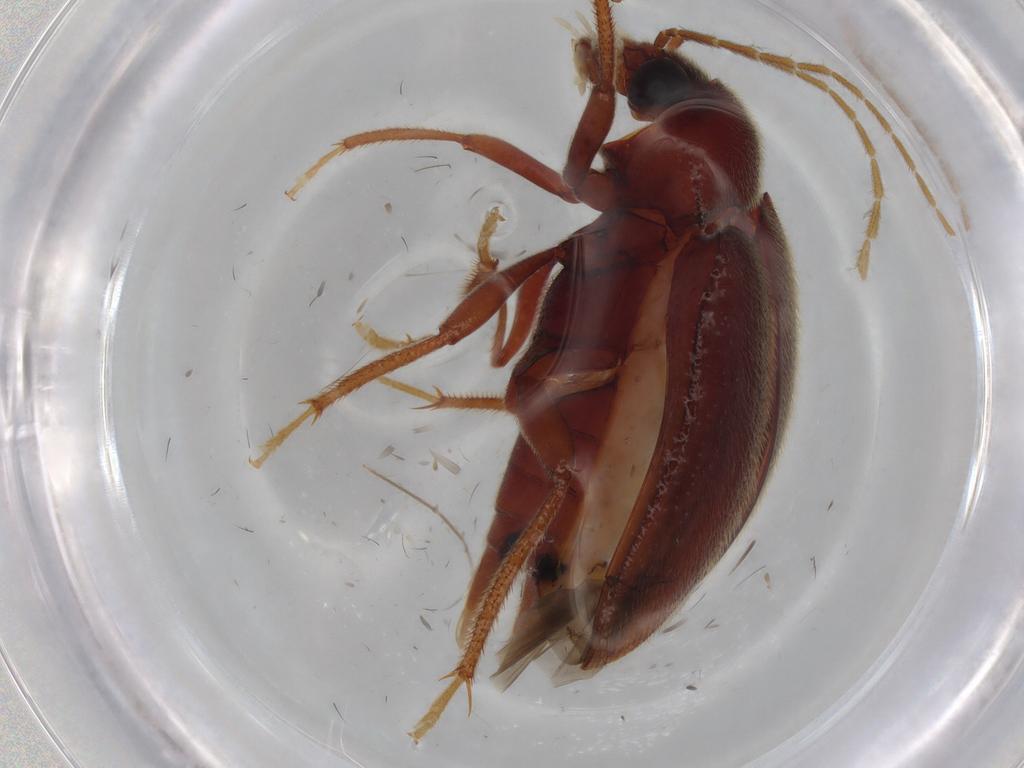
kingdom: Animalia
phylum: Arthropoda
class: Insecta
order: Coleoptera
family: Ptilodactylidae
